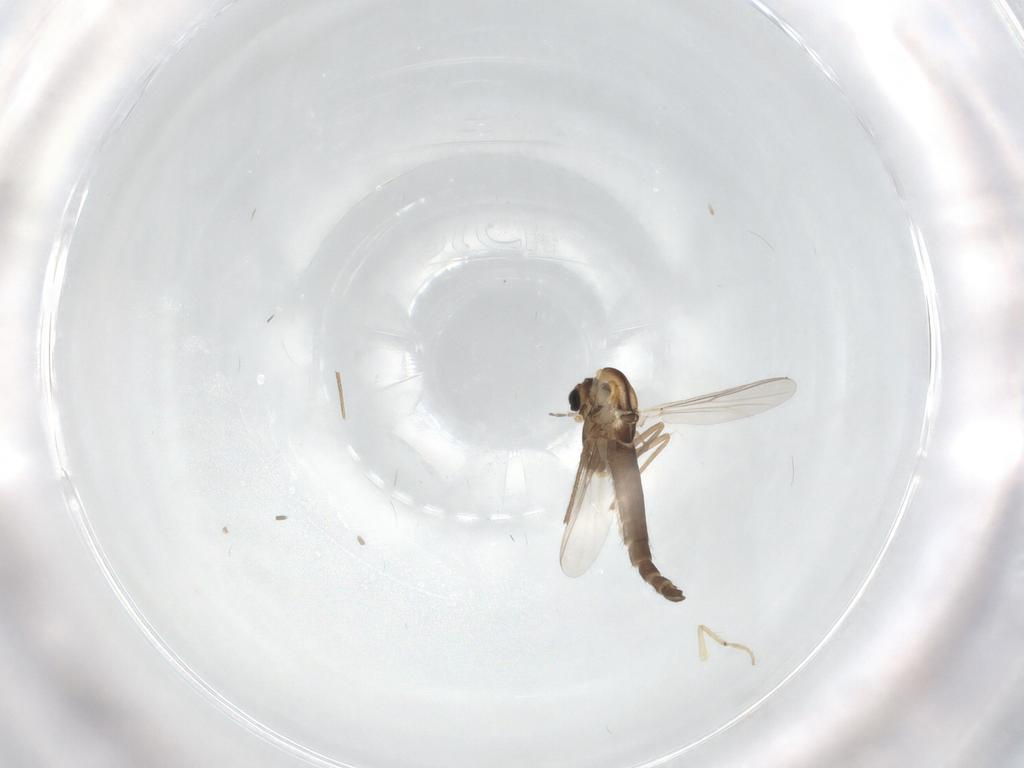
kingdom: Animalia
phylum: Arthropoda
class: Insecta
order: Diptera
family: Chironomidae
